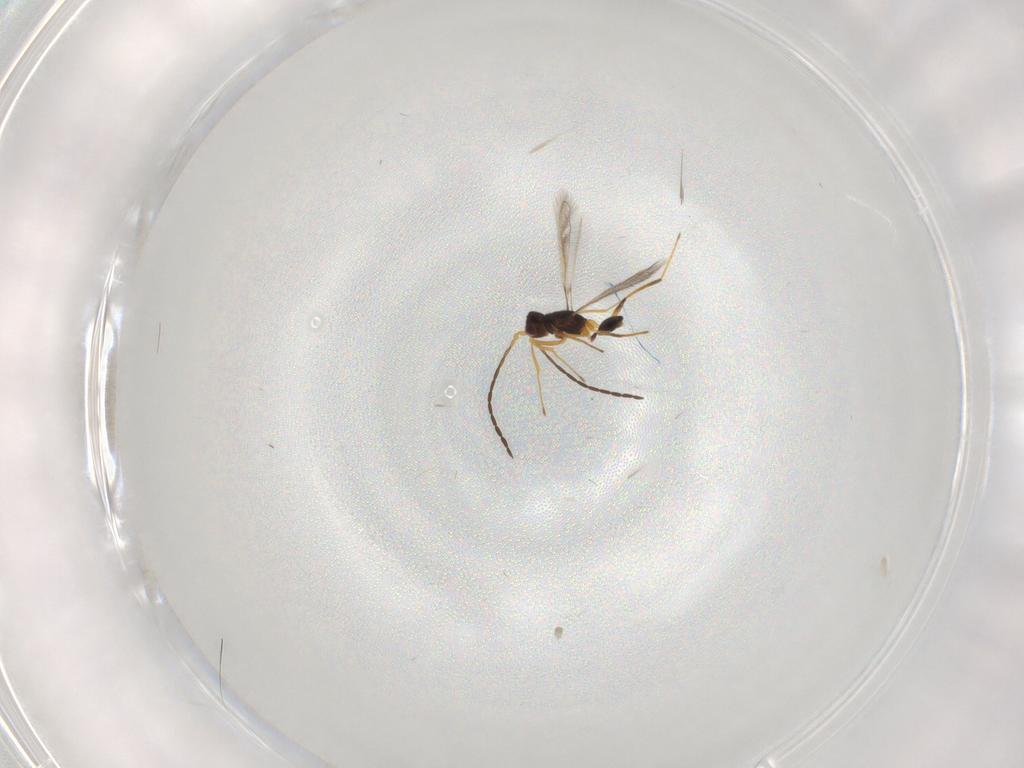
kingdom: Animalia
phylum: Arthropoda
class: Insecta
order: Hymenoptera
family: Mymaridae
